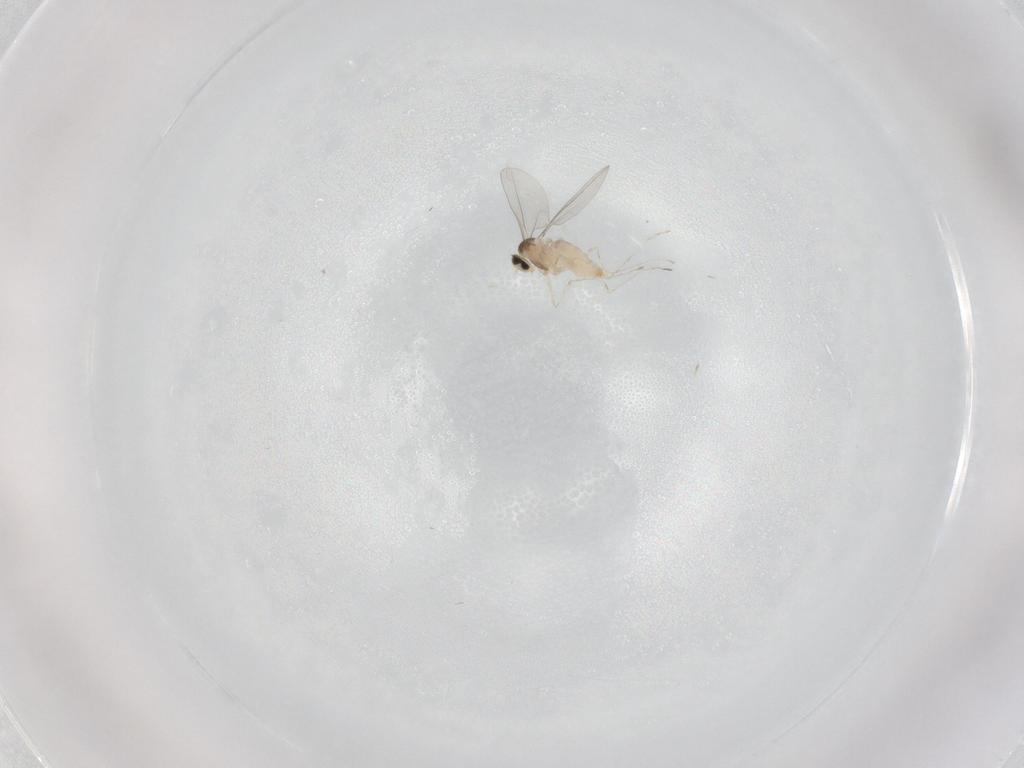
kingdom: Animalia
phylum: Arthropoda
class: Insecta
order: Diptera
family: Cecidomyiidae
